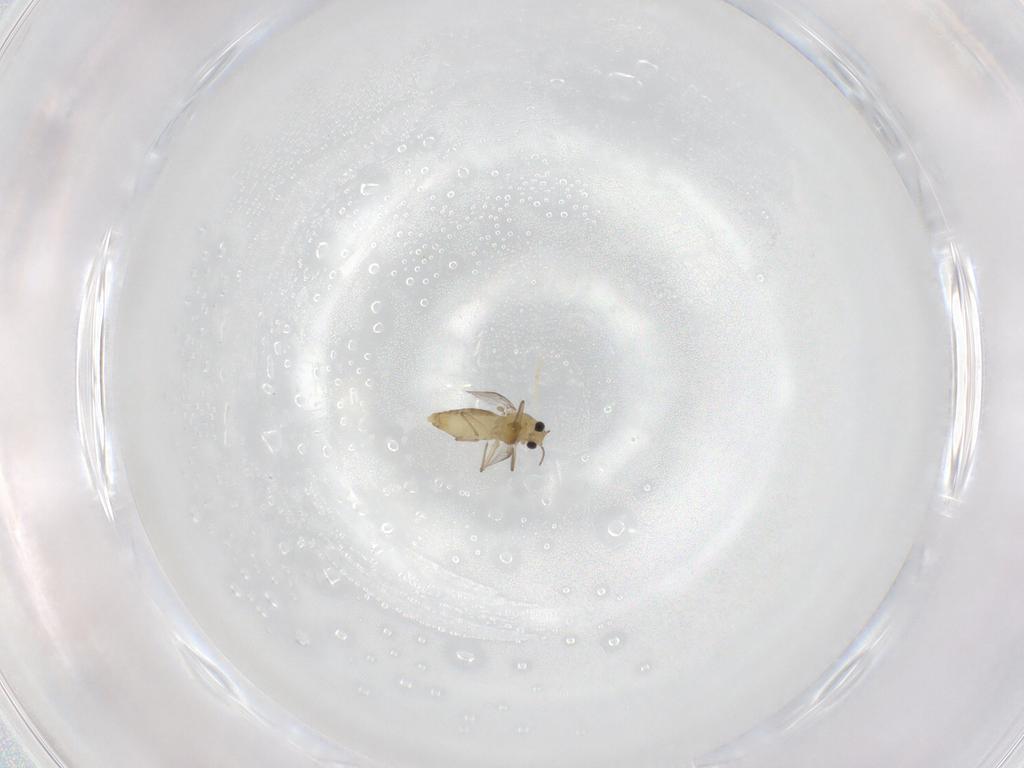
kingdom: Animalia
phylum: Arthropoda
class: Insecta
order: Diptera
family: Chironomidae
